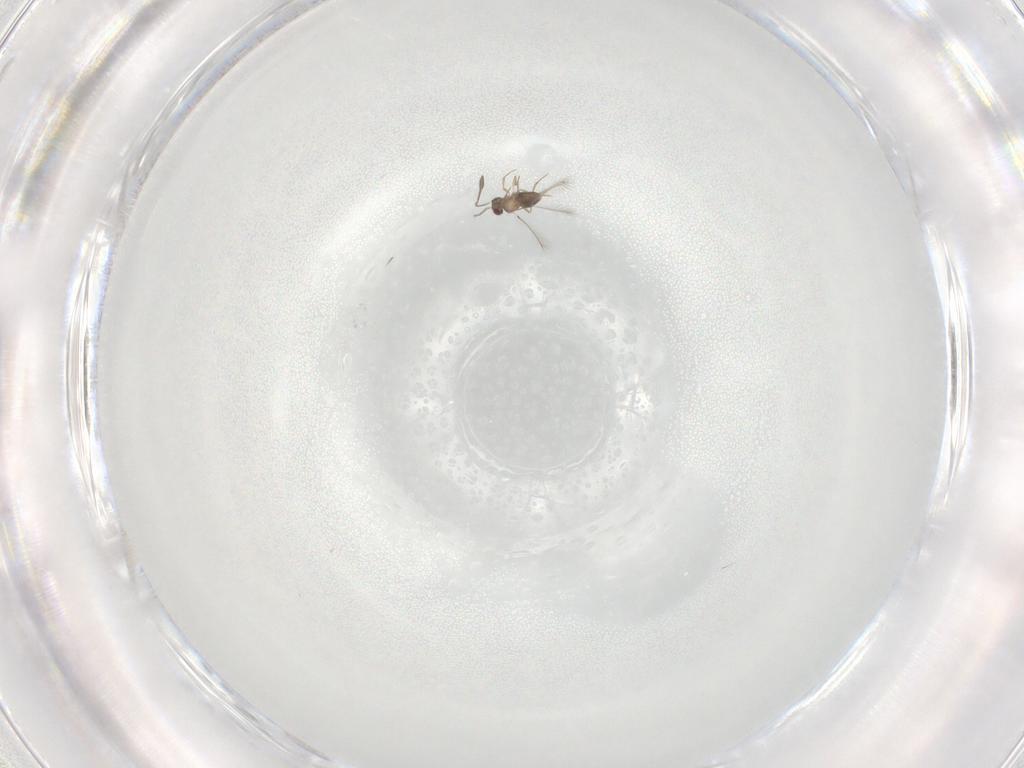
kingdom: Animalia
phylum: Arthropoda
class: Insecta
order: Hymenoptera
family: Mymaridae
